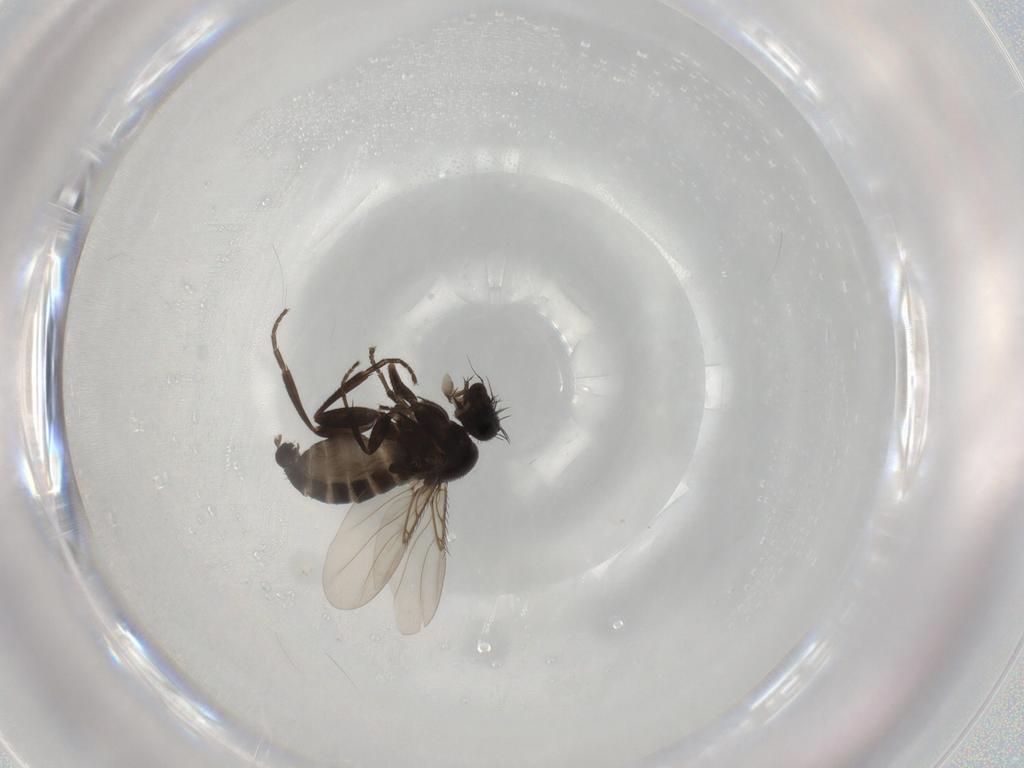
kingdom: Animalia
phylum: Arthropoda
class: Insecta
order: Diptera
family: Phoridae
